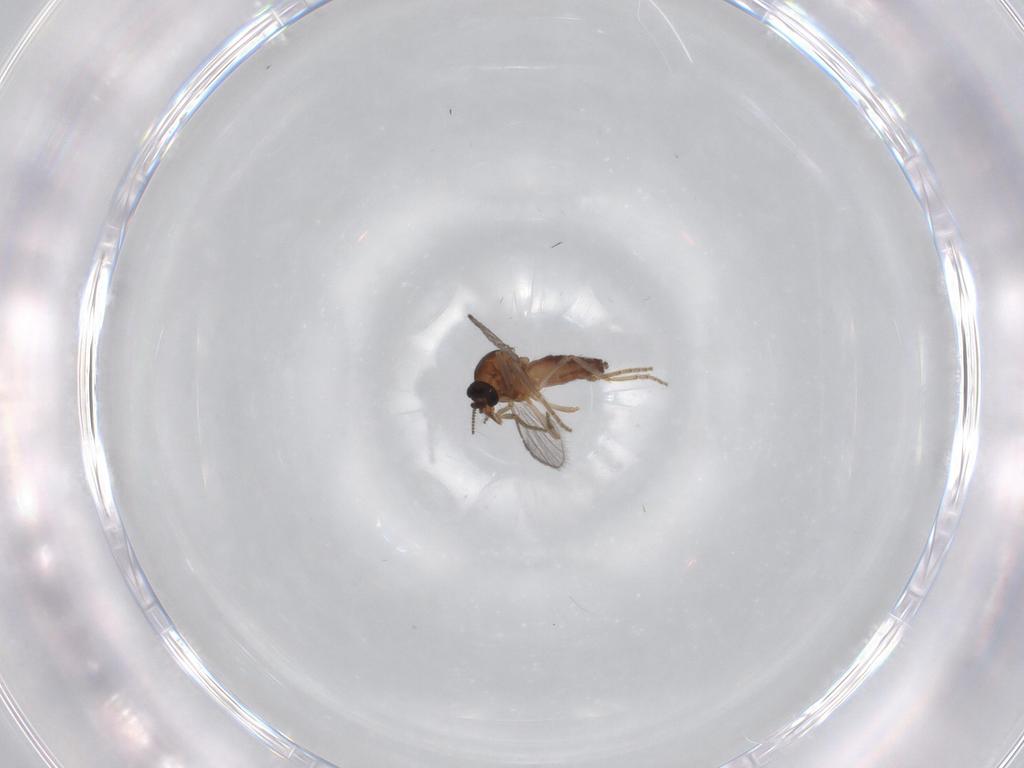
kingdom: Animalia
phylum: Arthropoda
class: Insecta
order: Diptera
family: Ceratopogonidae
